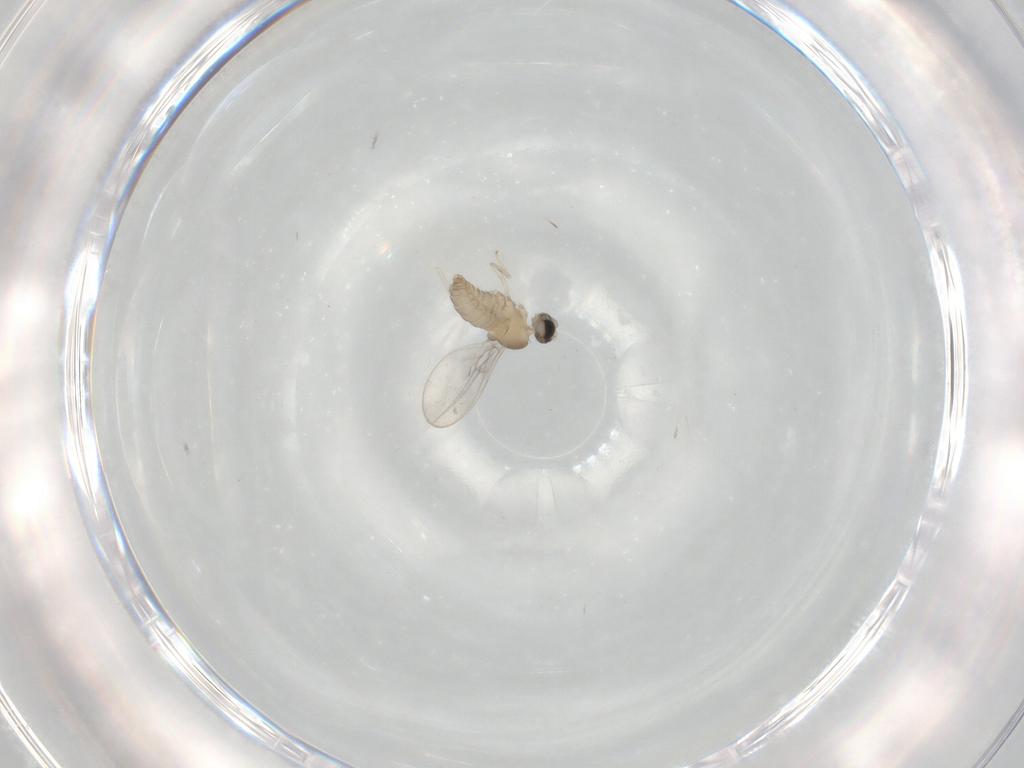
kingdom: Animalia
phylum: Arthropoda
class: Insecta
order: Diptera
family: Cecidomyiidae
